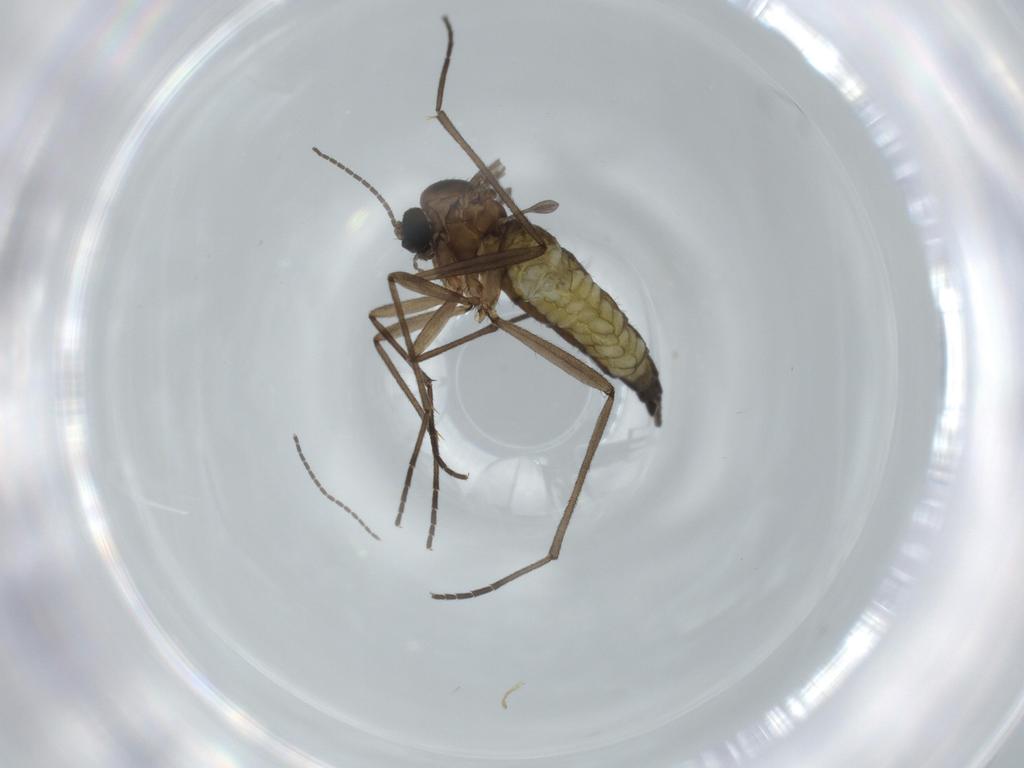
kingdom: Animalia
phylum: Arthropoda
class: Insecta
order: Diptera
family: Sciaridae
